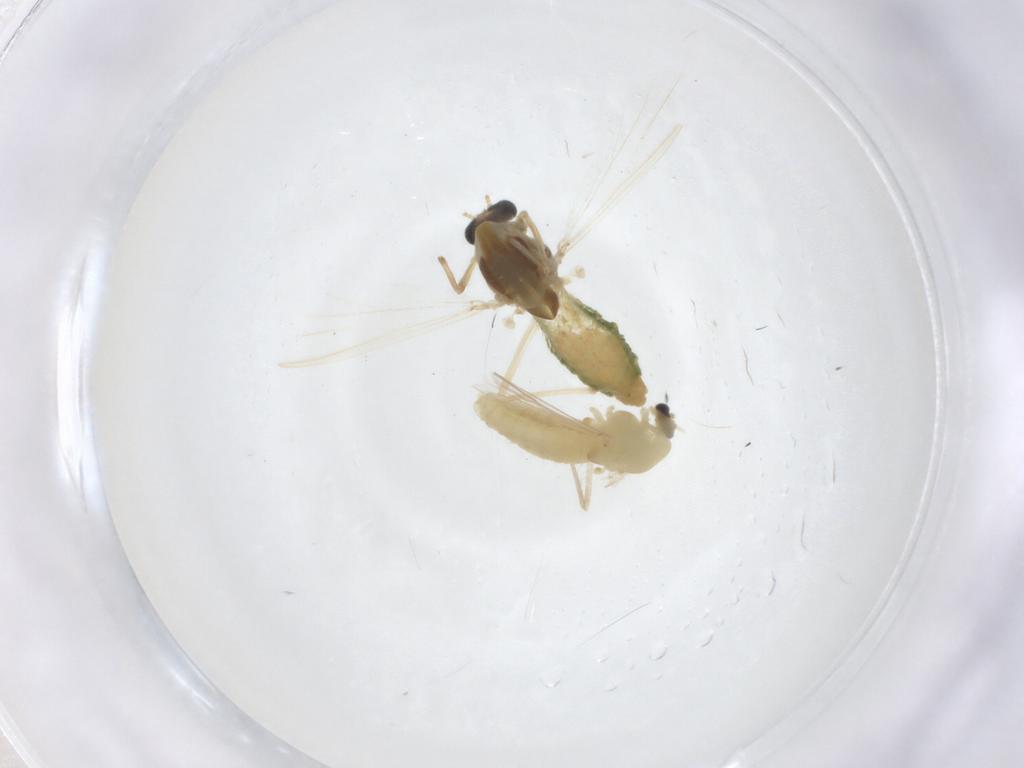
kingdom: Animalia
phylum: Arthropoda
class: Insecta
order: Diptera
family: Chironomidae
